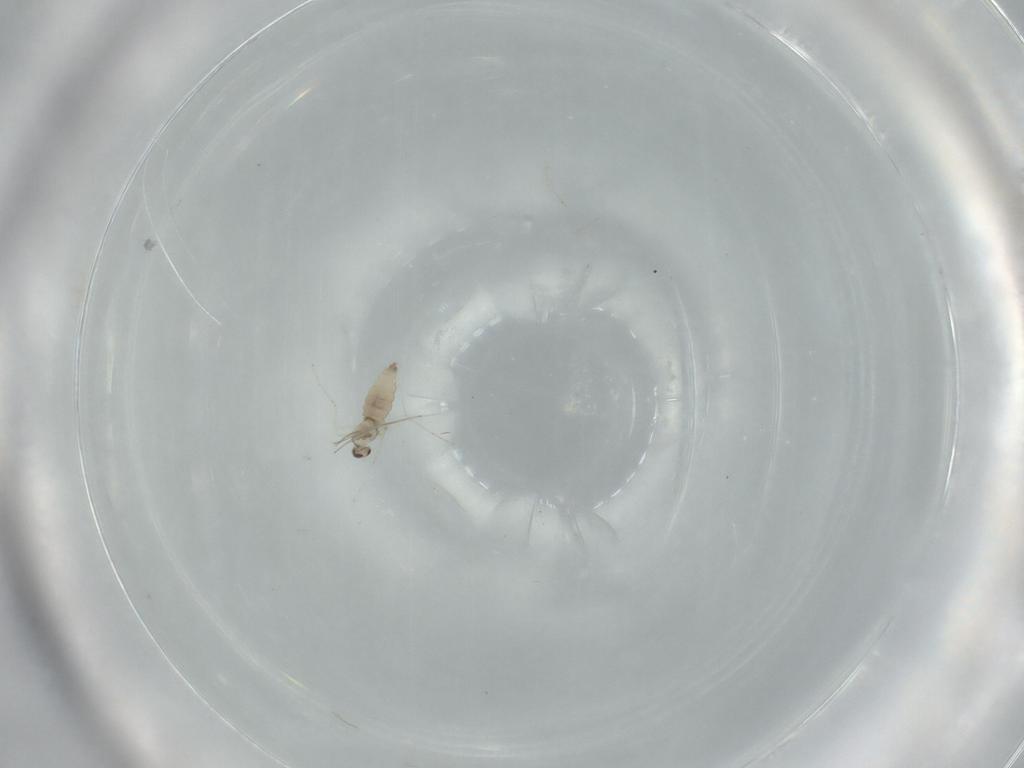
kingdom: Animalia
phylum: Arthropoda
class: Insecta
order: Diptera
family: Cecidomyiidae
